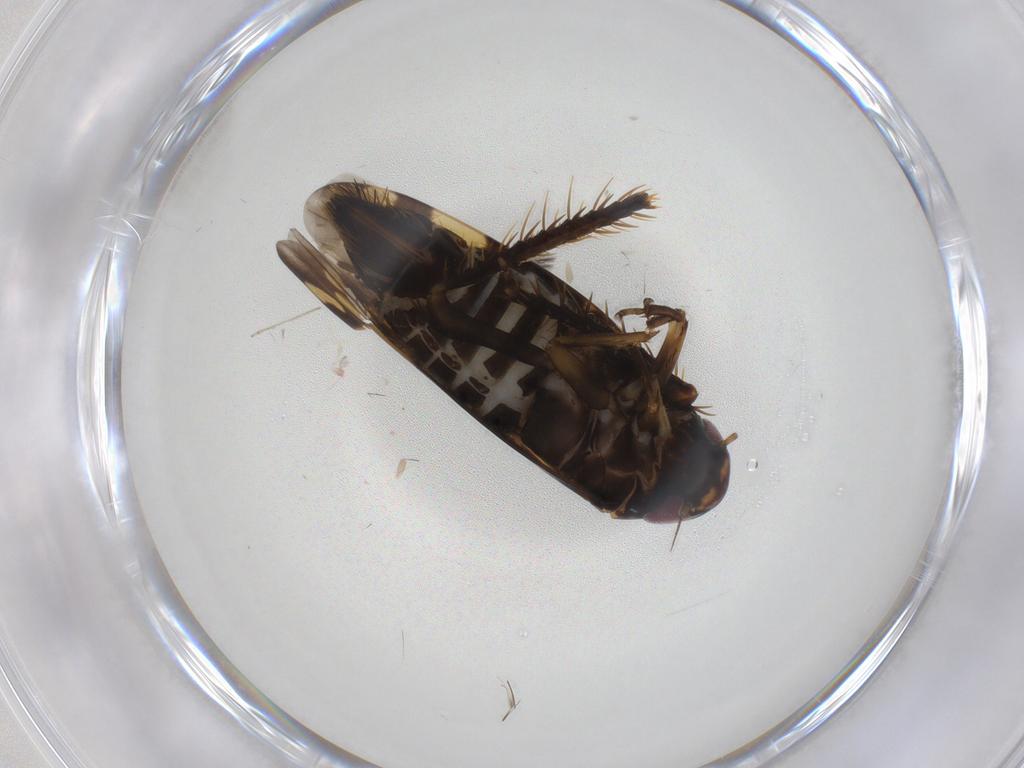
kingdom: Animalia
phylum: Arthropoda
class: Insecta
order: Hemiptera
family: Cicadellidae
